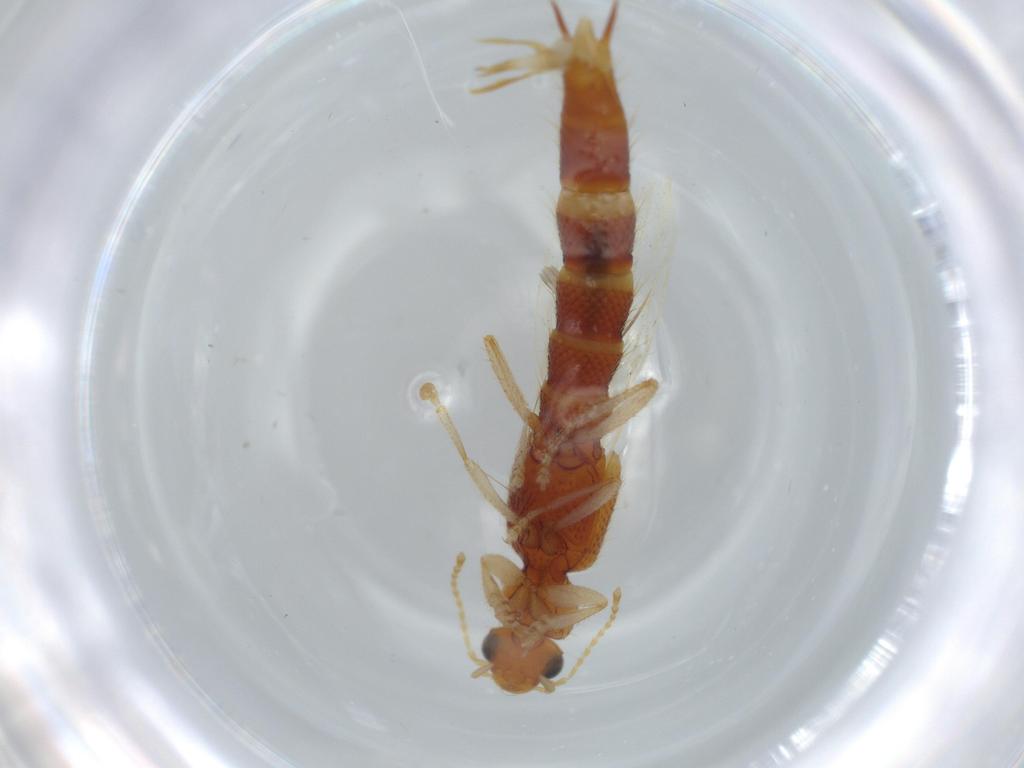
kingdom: Animalia
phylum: Arthropoda
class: Insecta
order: Coleoptera
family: Staphylinidae
